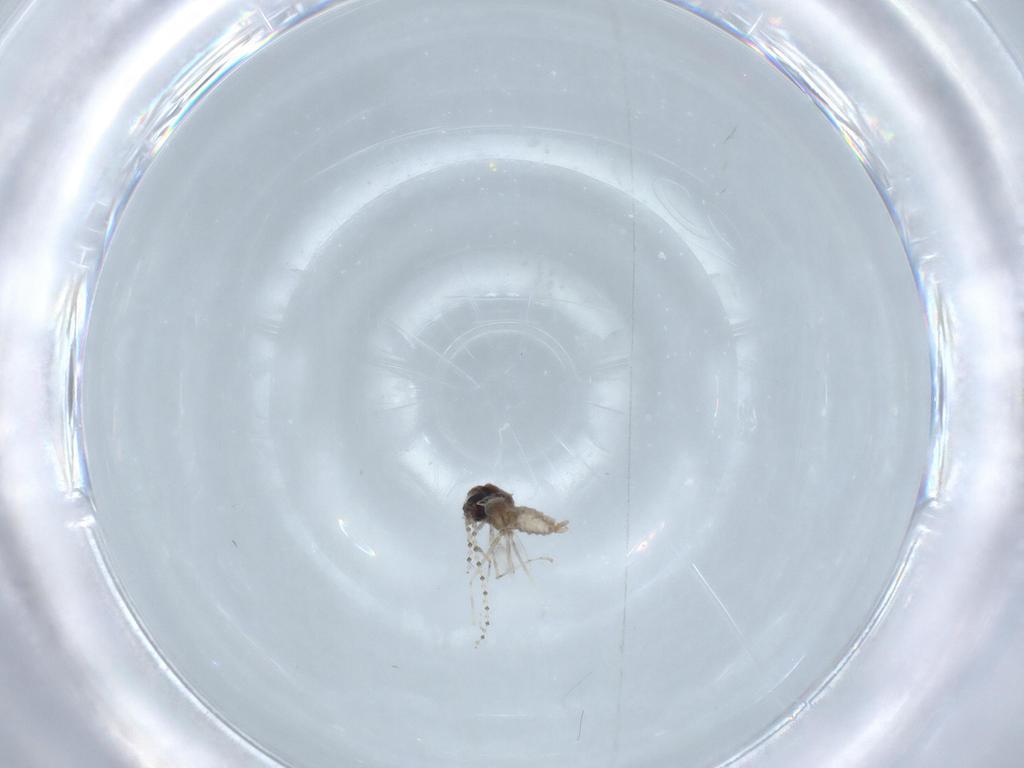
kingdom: Animalia
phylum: Arthropoda
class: Insecta
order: Diptera
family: Cecidomyiidae
